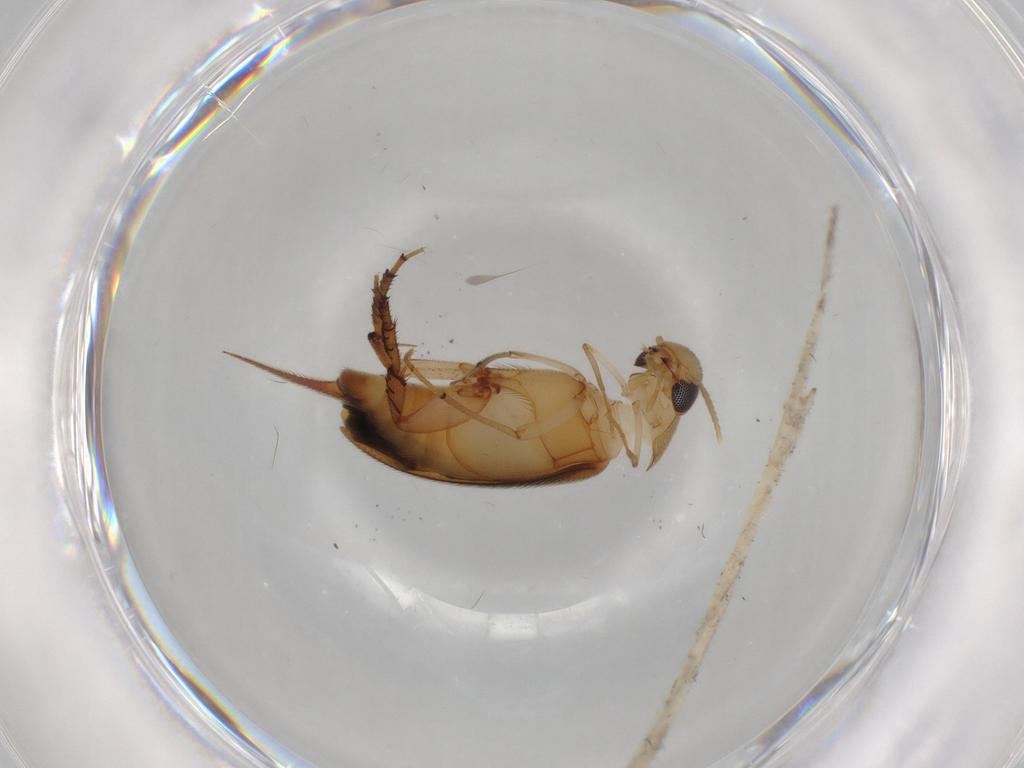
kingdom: Animalia
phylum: Arthropoda
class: Insecta
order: Coleoptera
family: Mordellidae
